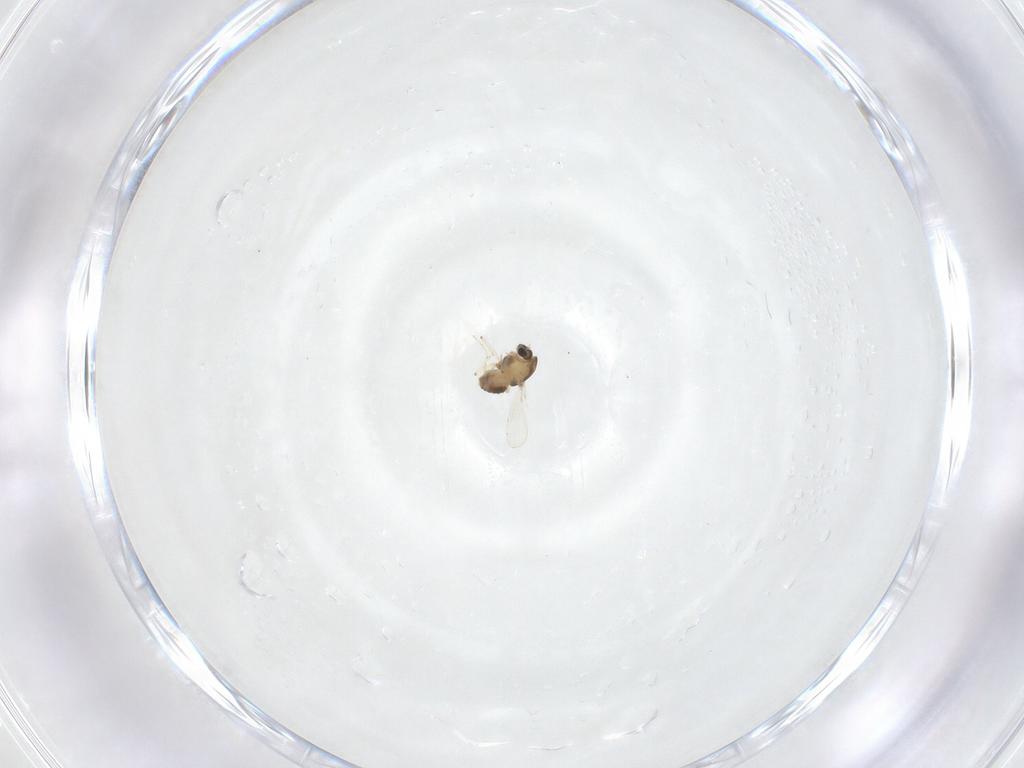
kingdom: Animalia
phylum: Arthropoda
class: Insecta
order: Diptera
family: Chironomidae
